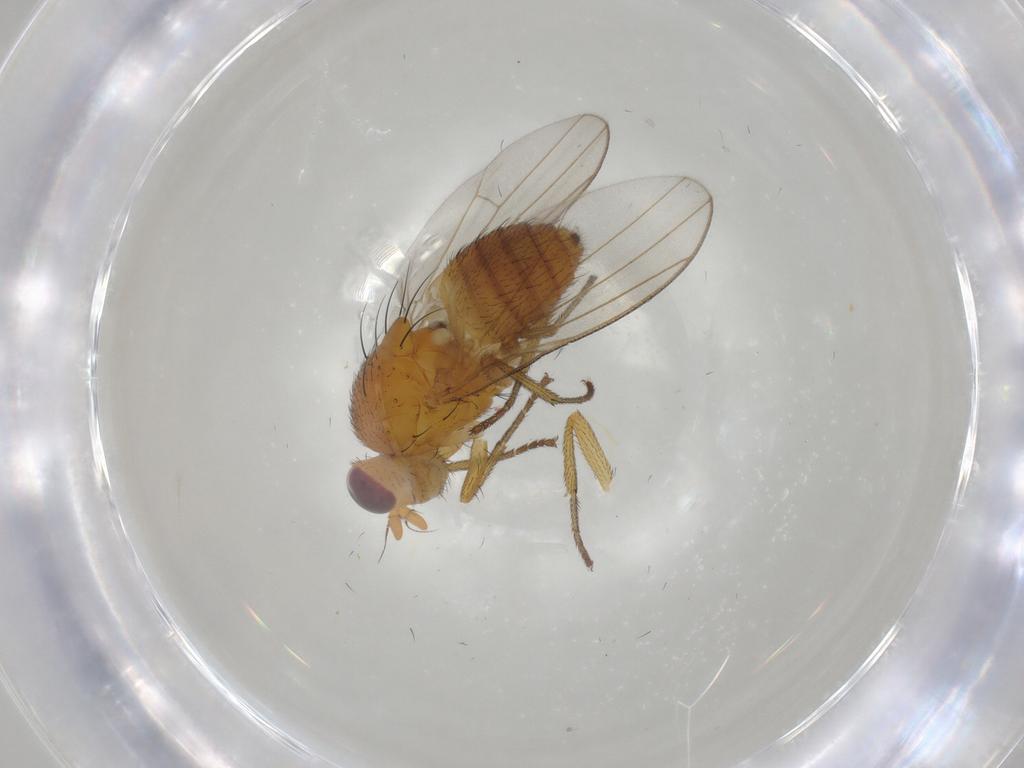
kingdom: Animalia
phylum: Arthropoda
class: Insecta
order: Diptera
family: Lauxaniidae
